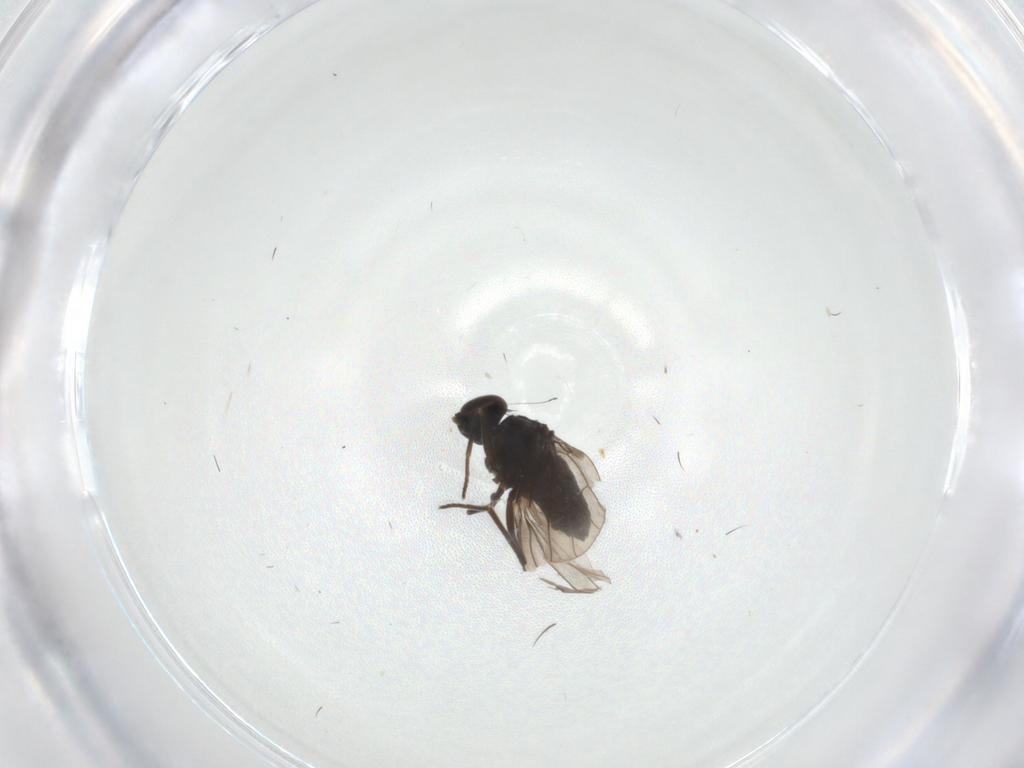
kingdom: Animalia
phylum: Arthropoda
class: Insecta
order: Diptera
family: Dolichopodidae
